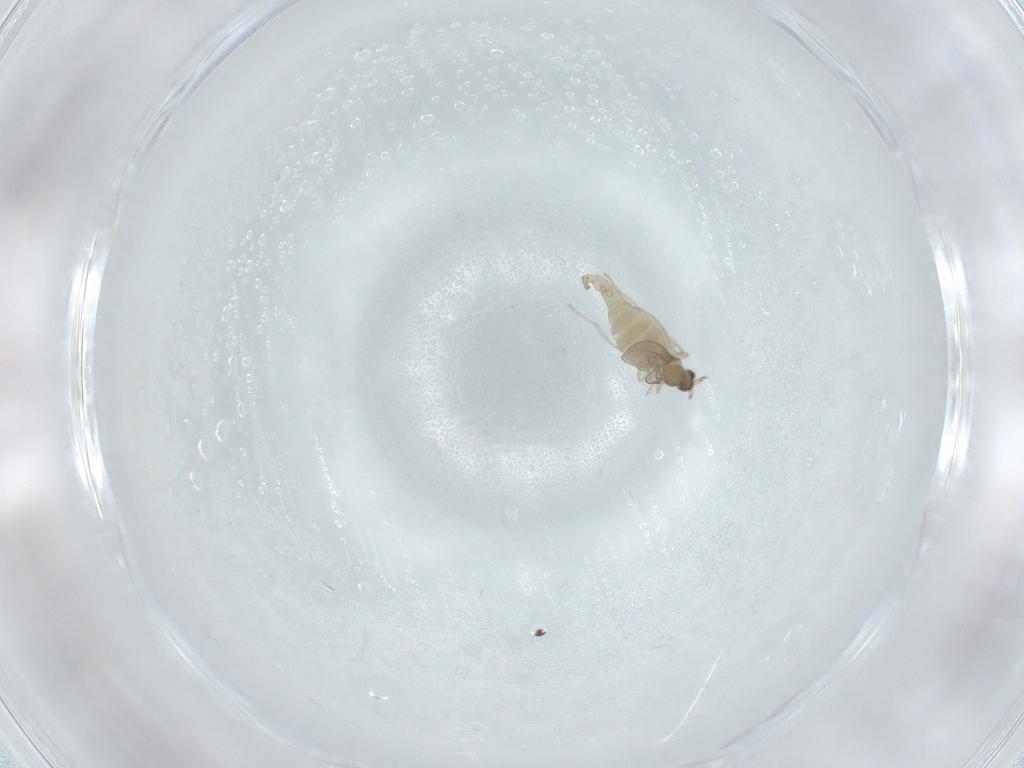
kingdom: Animalia
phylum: Arthropoda
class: Insecta
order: Diptera
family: Cecidomyiidae
